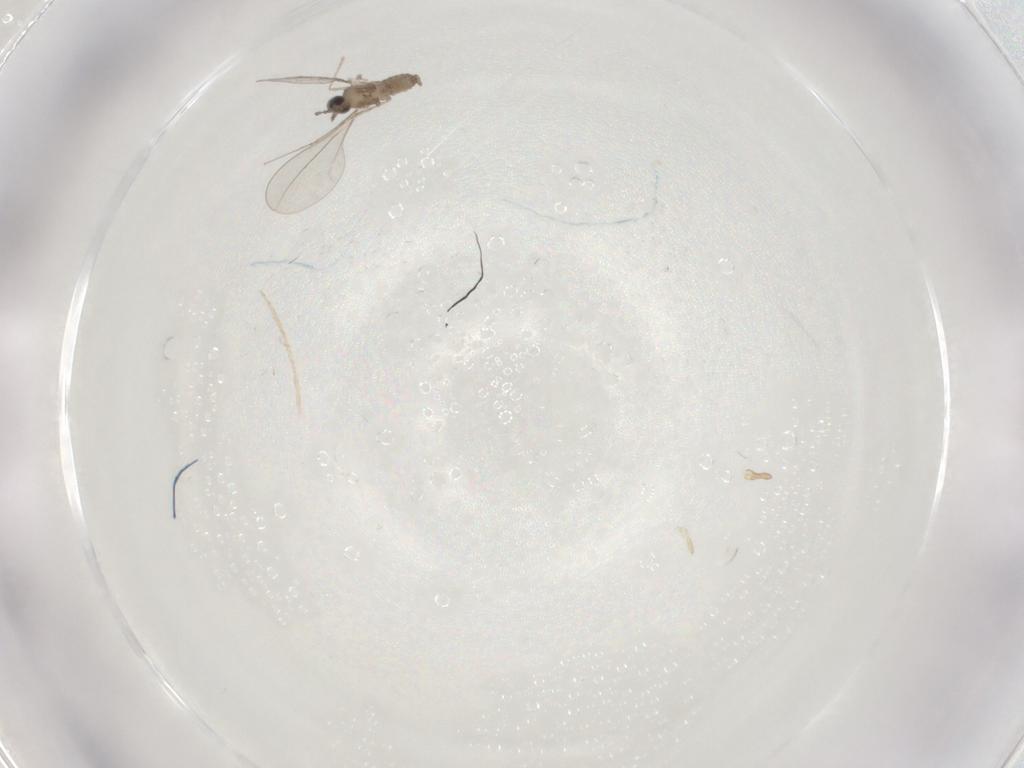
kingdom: Animalia
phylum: Arthropoda
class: Insecta
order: Diptera
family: Cecidomyiidae
